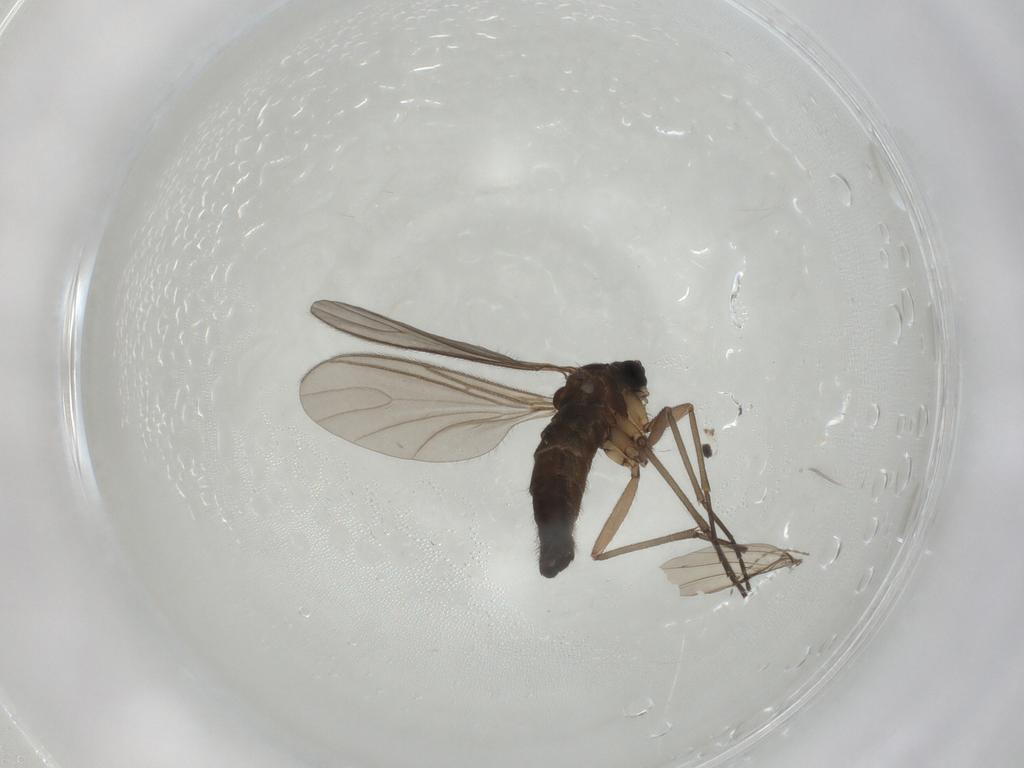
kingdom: Animalia
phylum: Arthropoda
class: Insecta
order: Diptera
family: Sciaridae
